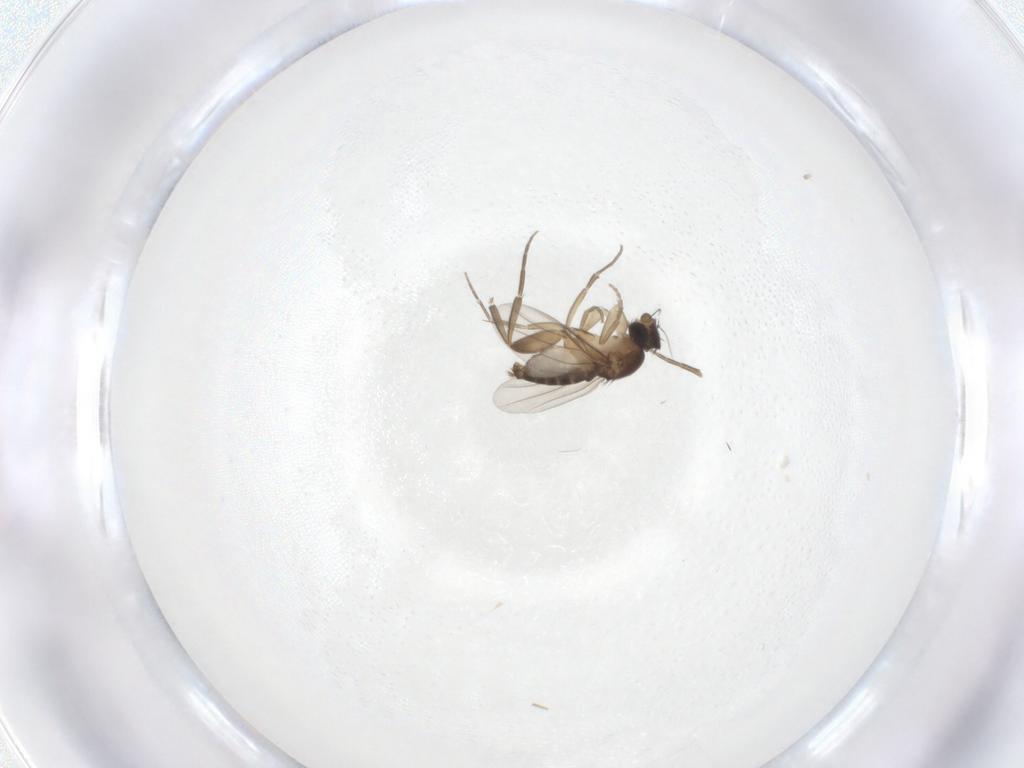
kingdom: Animalia
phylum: Arthropoda
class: Insecta
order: Diptera
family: Phoridae
